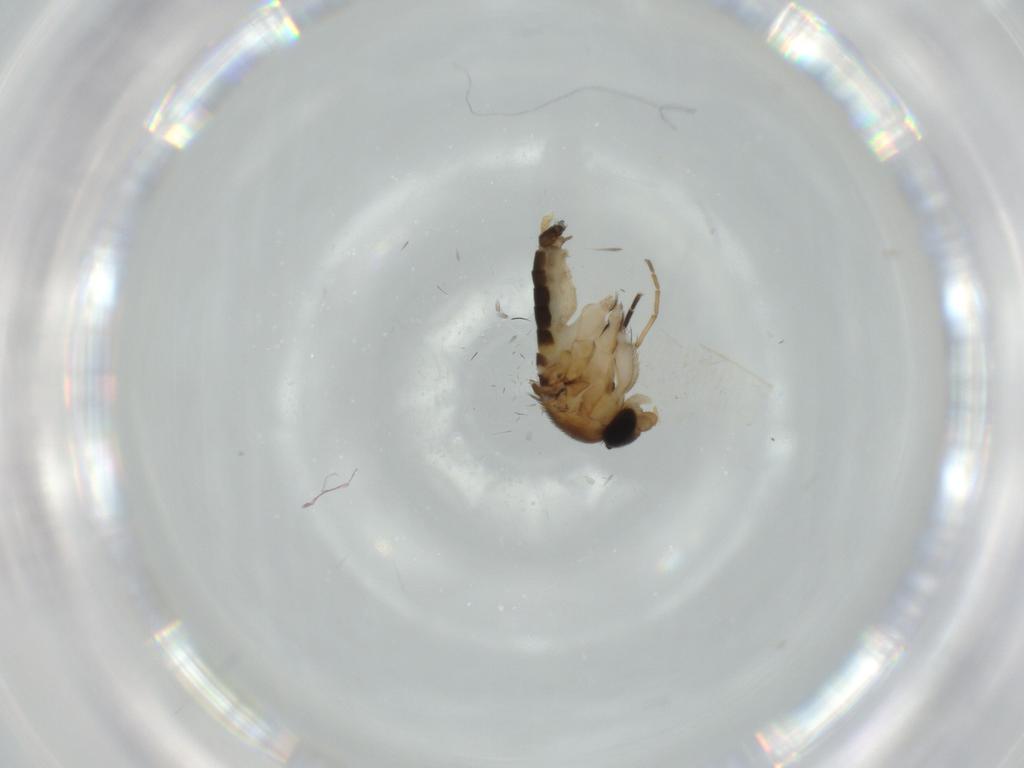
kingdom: Animalia
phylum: Arthropoda
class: Insecta
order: Diptera
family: Phoridae
